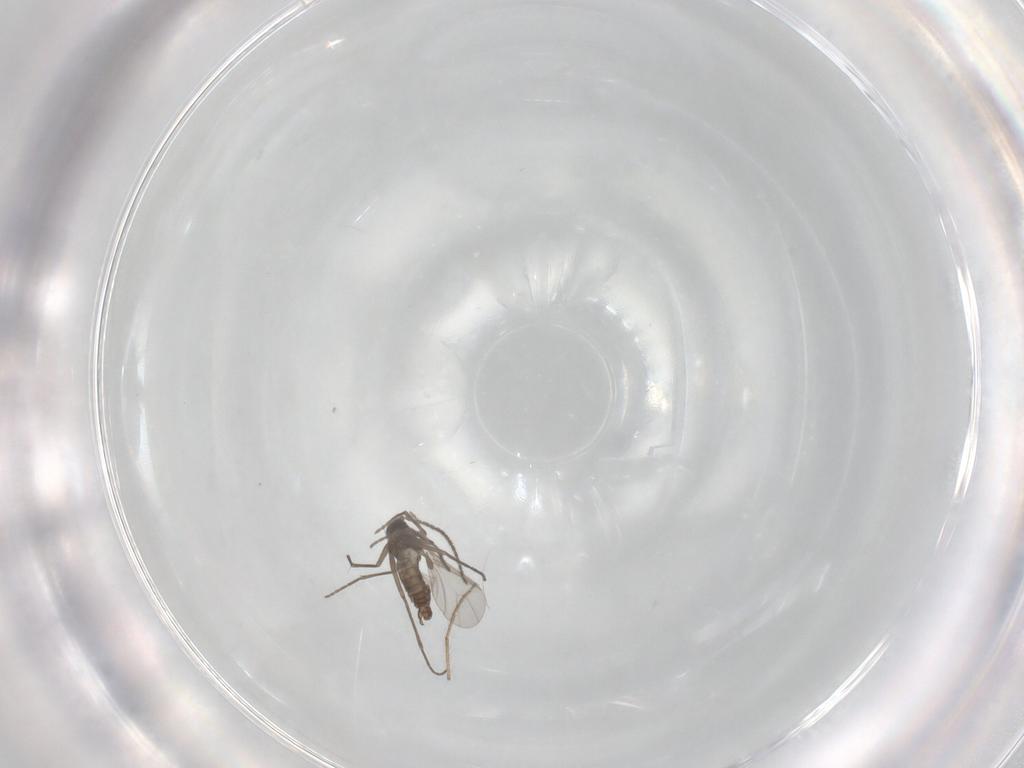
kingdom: Animalia
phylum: Arthropoda
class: Insecta
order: Diptera
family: Sciaridae
